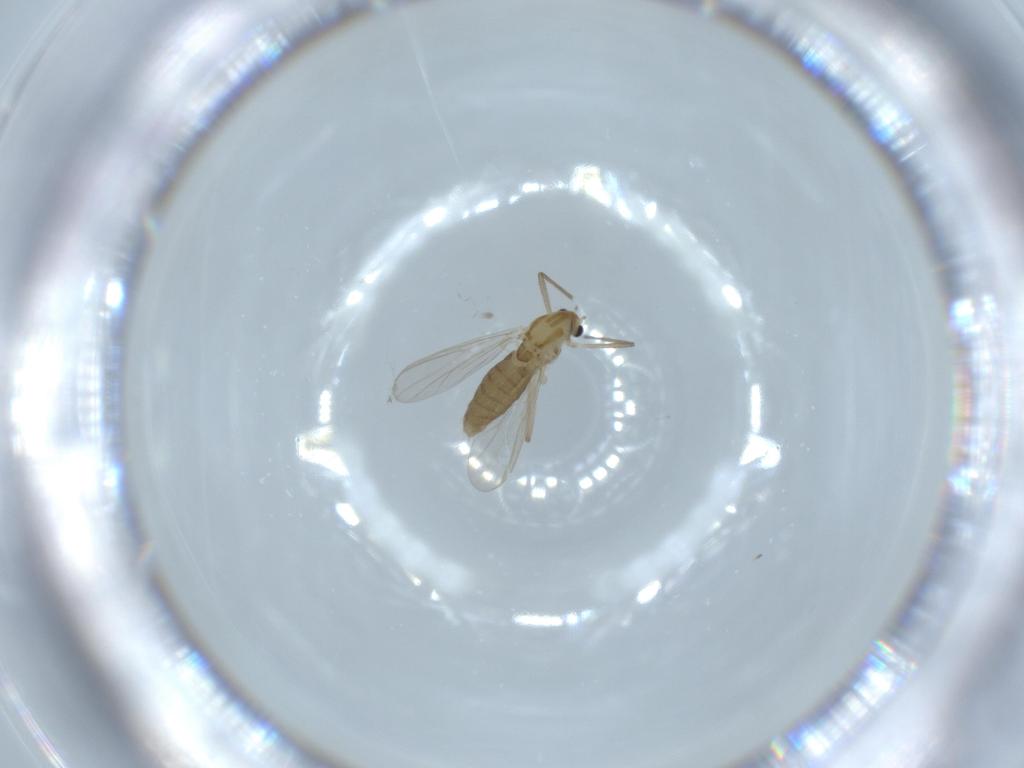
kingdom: Animalia
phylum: Arthropoda
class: Insecta
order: Diptera
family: Chironomidae
